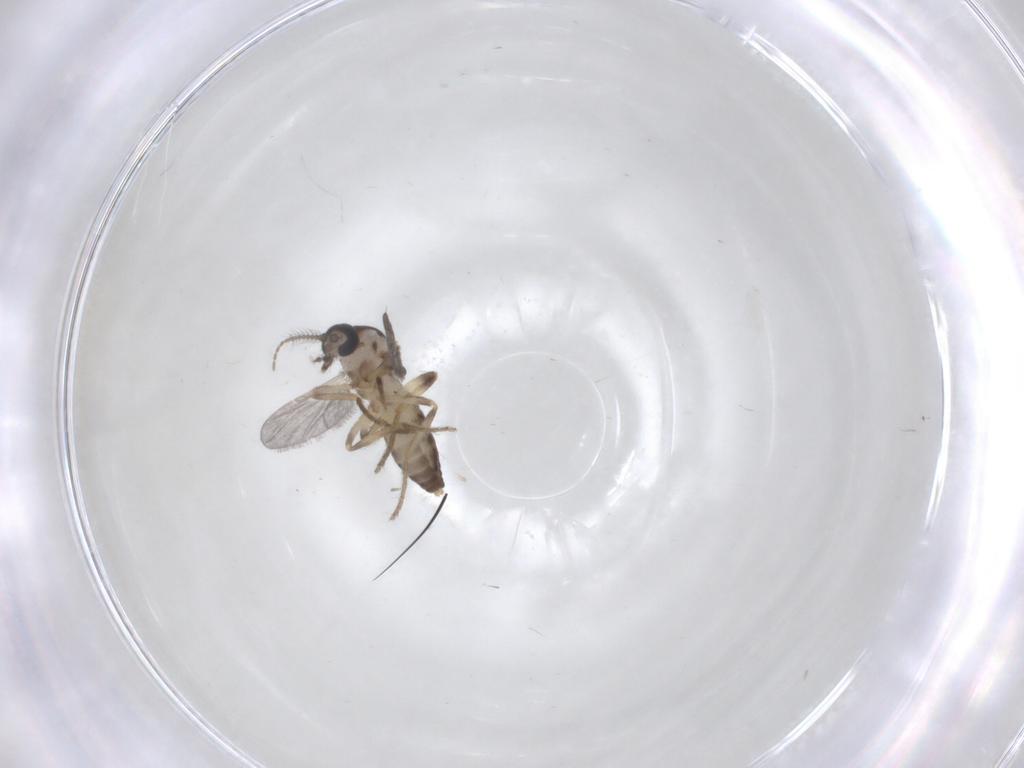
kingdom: Animalia
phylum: Arthropoda
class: Insecta
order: Diptera
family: Ceratopogonidae
